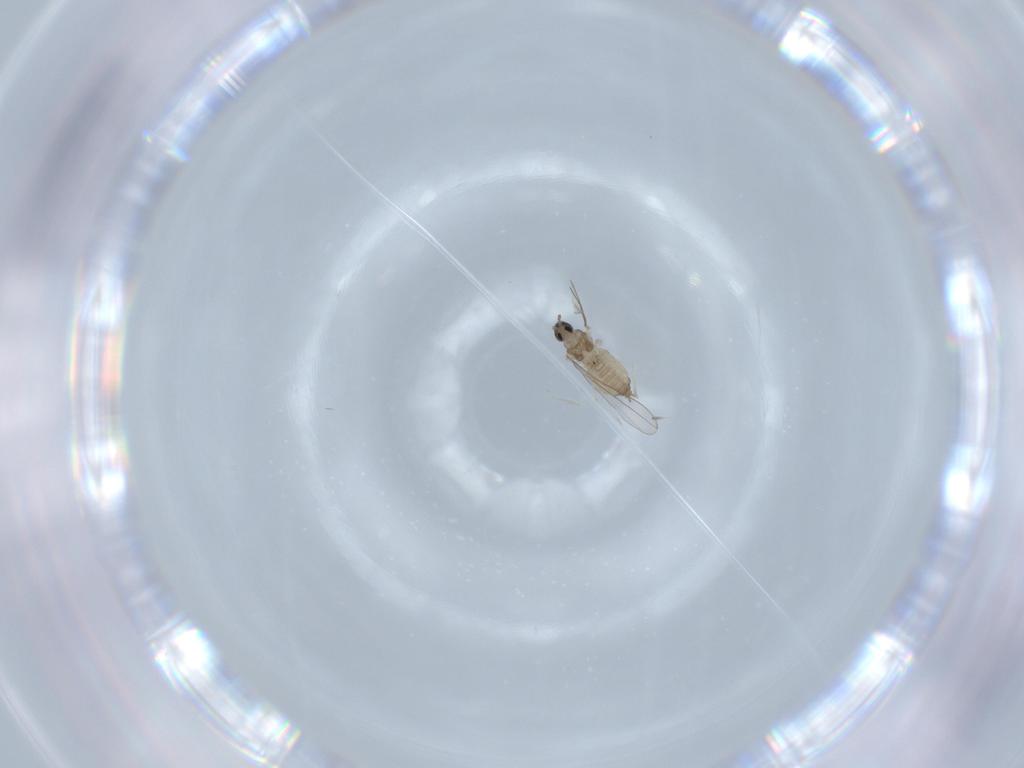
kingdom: Animalia
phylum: Arthropoda
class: Insecta
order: Diptera
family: Cecidomyiidae
